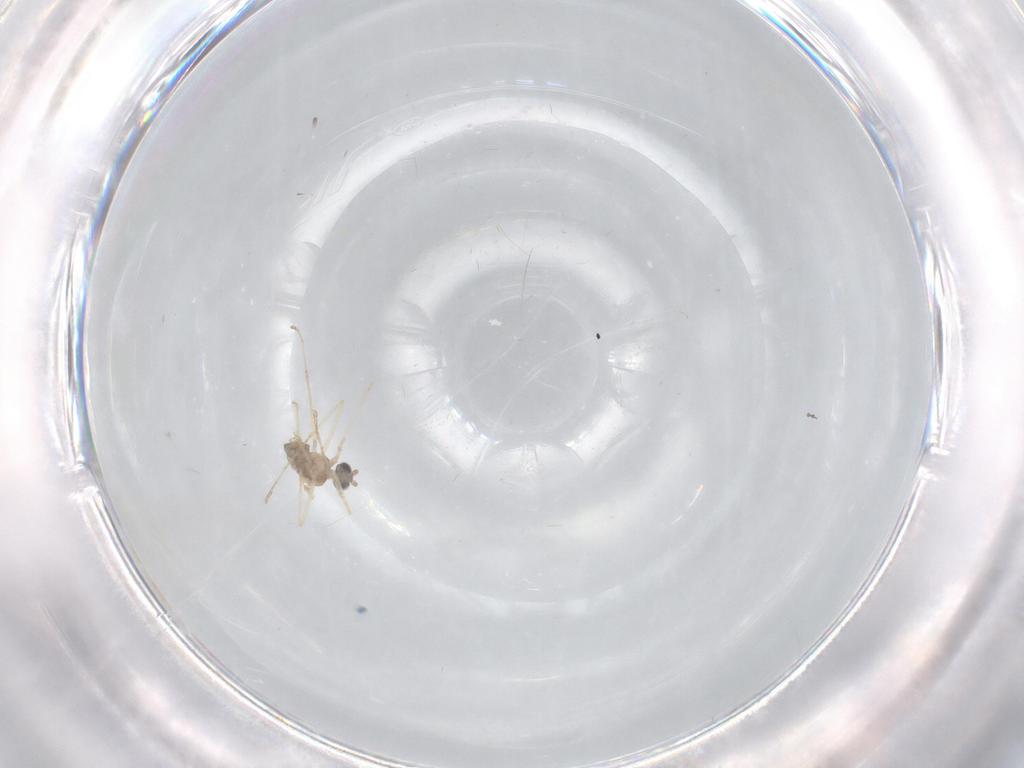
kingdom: Animalia
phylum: Arthropoda
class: Insecta
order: Diptera
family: Cecidomyiidae
